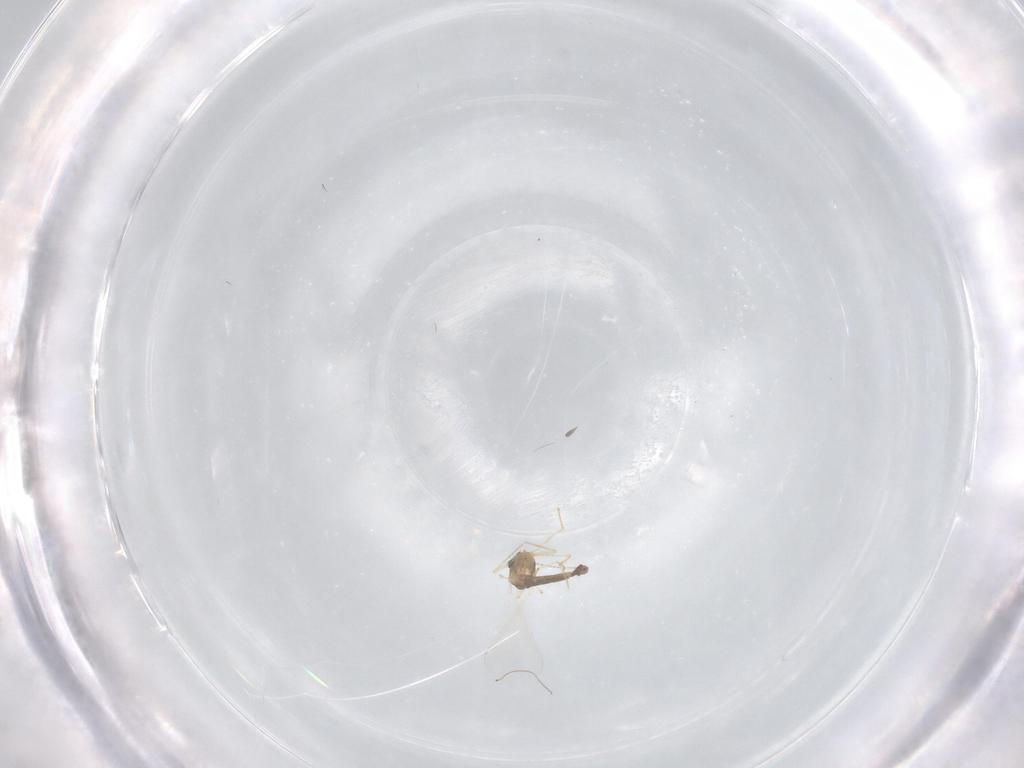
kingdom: Animalia
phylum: Arthropoda
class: Insecta
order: Diptera
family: Chironomidae
